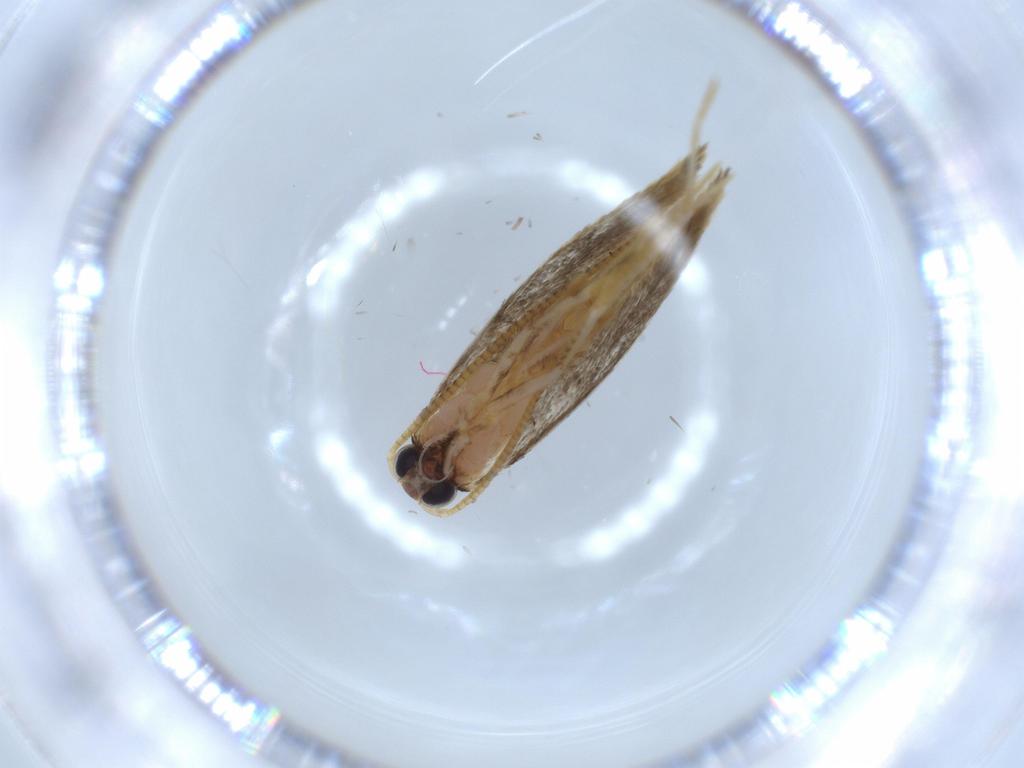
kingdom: Animalia
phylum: Arthropoda
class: Insecta
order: Lepidoptera
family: Tineidae
